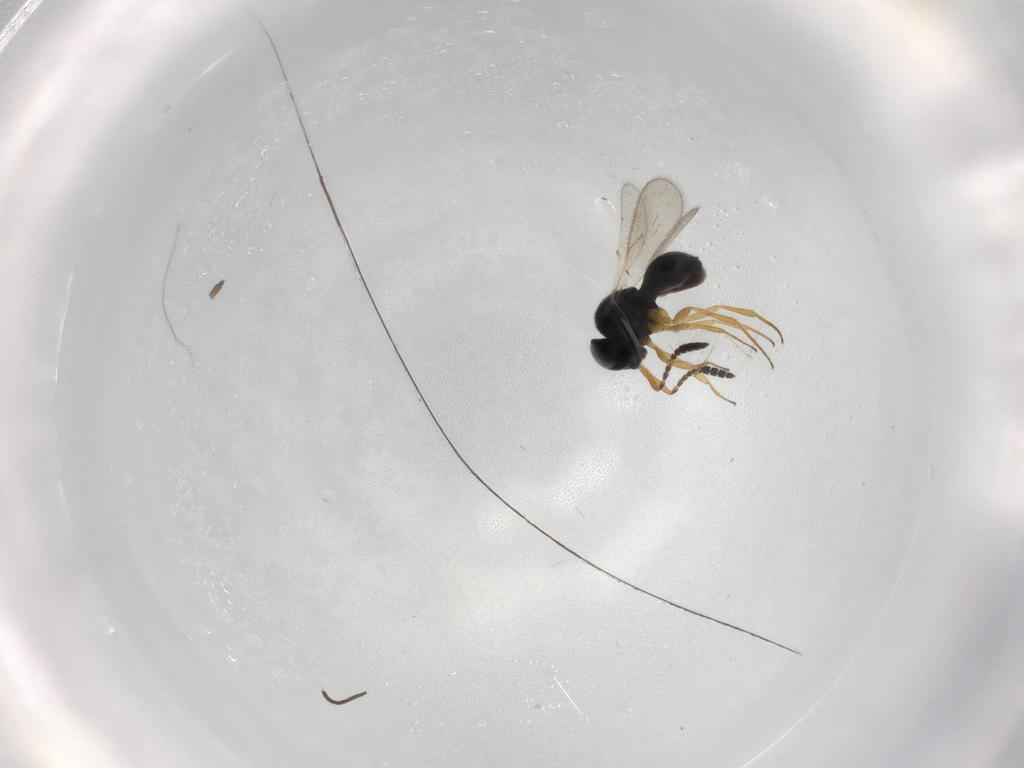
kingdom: Animalia
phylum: Arthropoda
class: Insecta
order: Hymenoptera
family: Scelionidae
